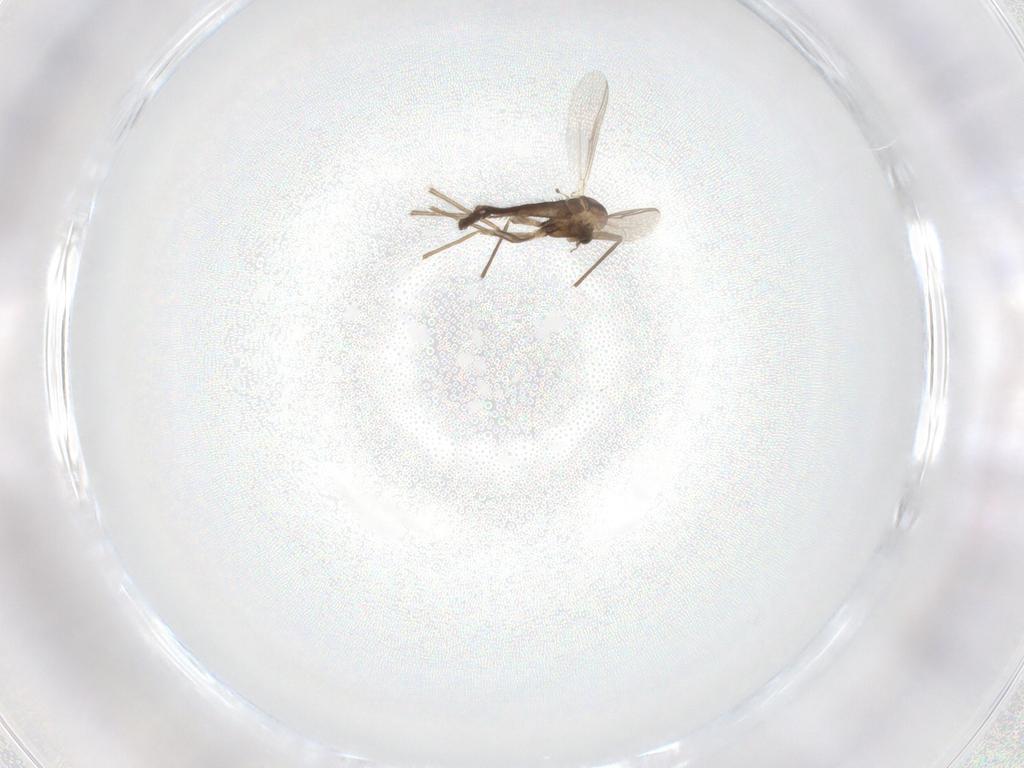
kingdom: Animalia
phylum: Arthropoda
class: Insecta
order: Diptera
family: Chironomidae
